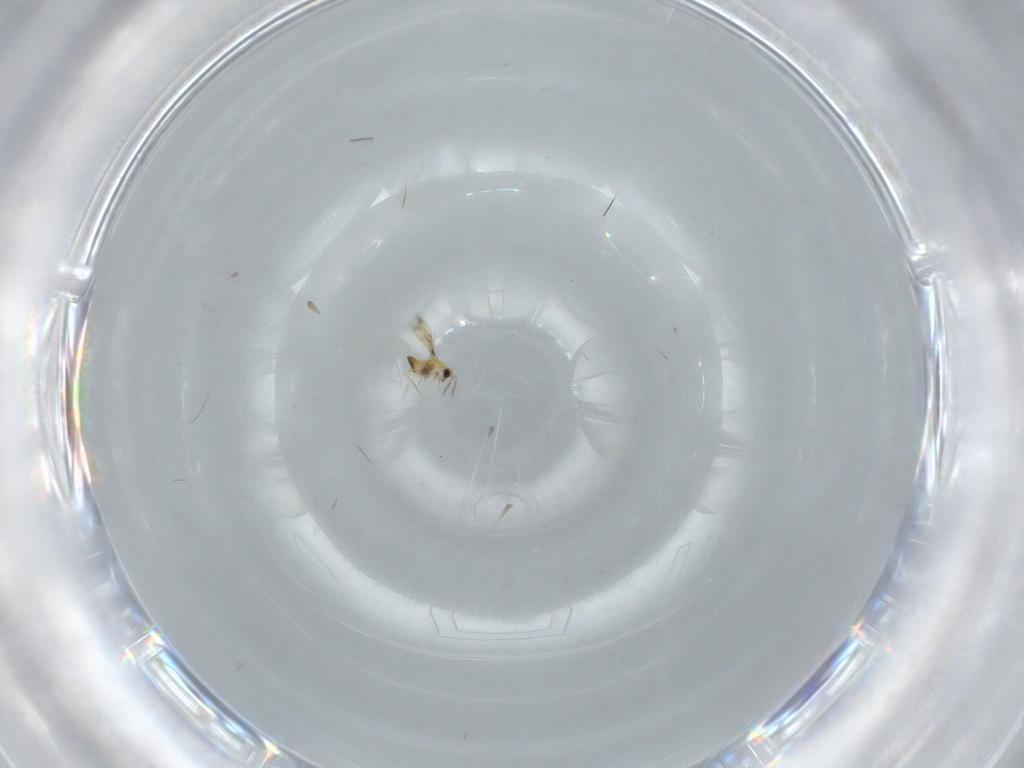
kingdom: Animalia
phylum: Arthropoda
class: Insecta
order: Hymenoptera
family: Trichogrammatidae
